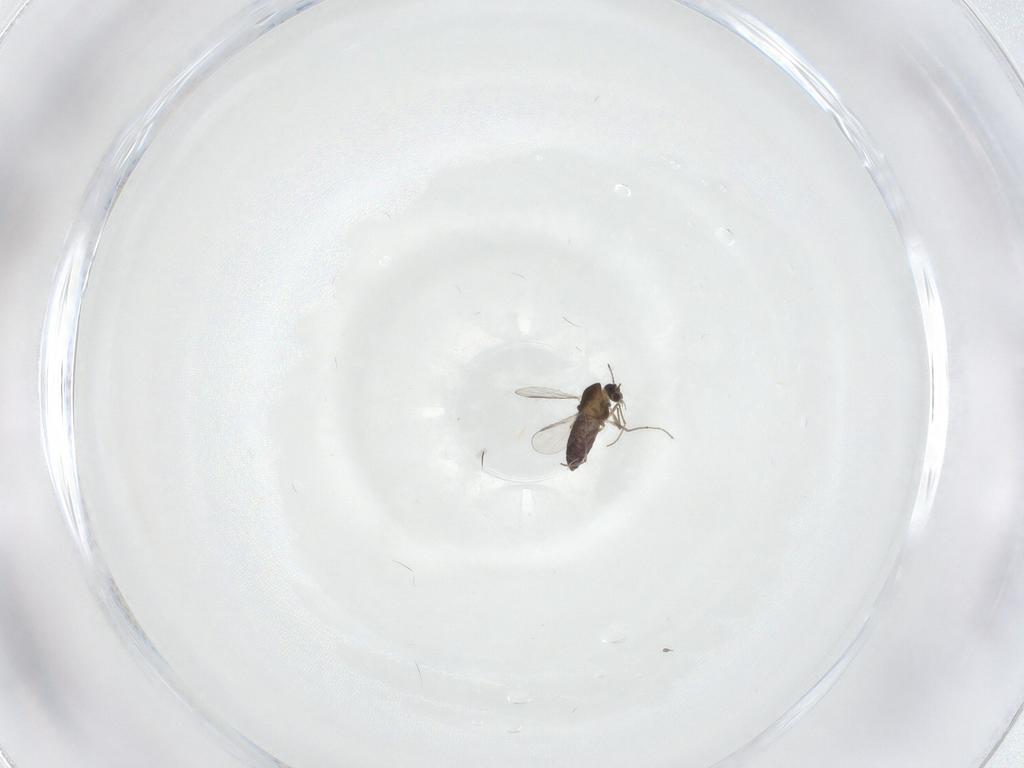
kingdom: Animalia
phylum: Arthropoda
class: Insecta
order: Diptera
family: Chironomidae
